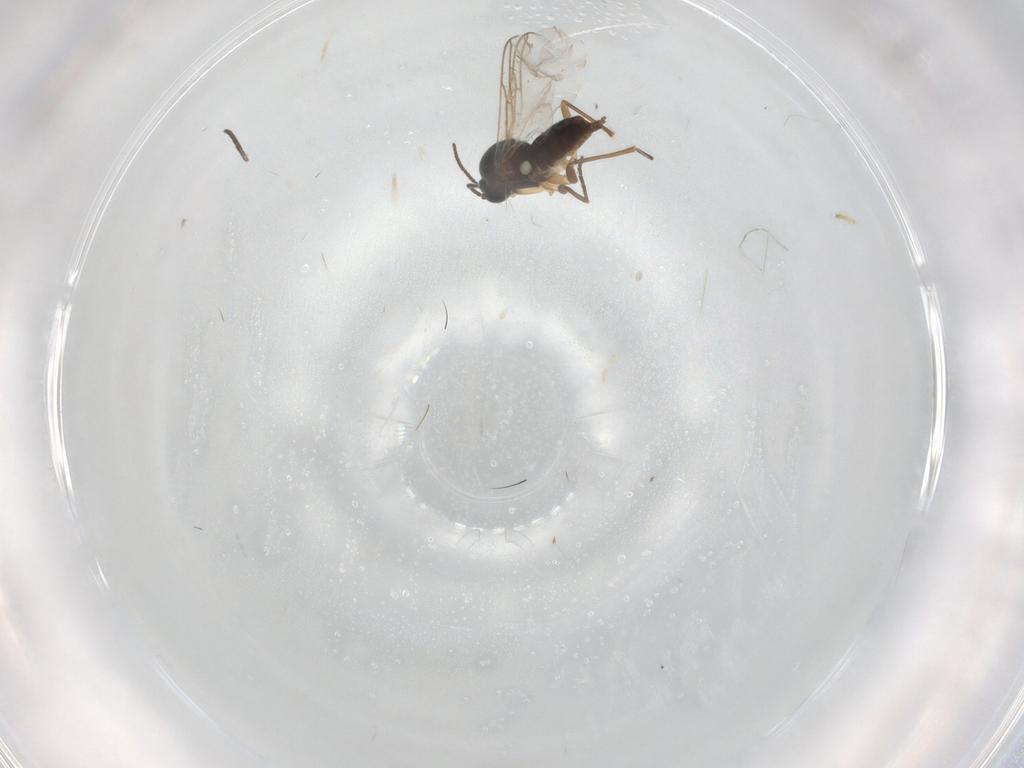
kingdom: Animalia
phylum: Arthropoda
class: Insecta
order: Diptera
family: Sciaridae
